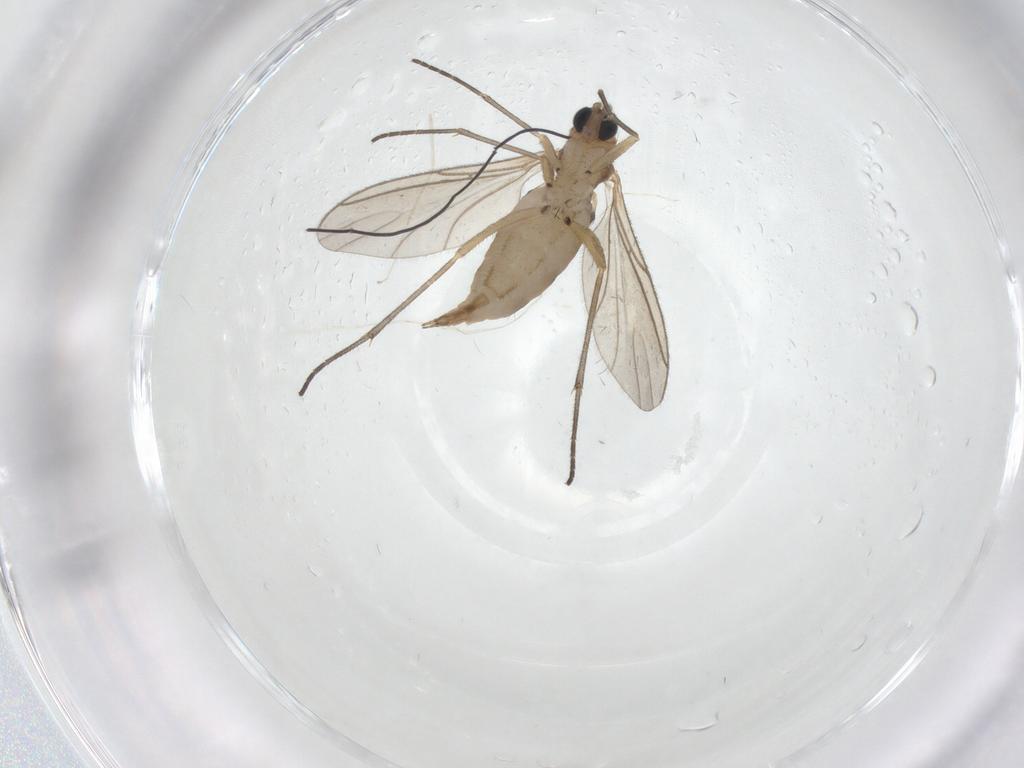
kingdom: Animalia
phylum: Arthropoda
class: Insecta
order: Diptera
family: Cecidomyiidae
